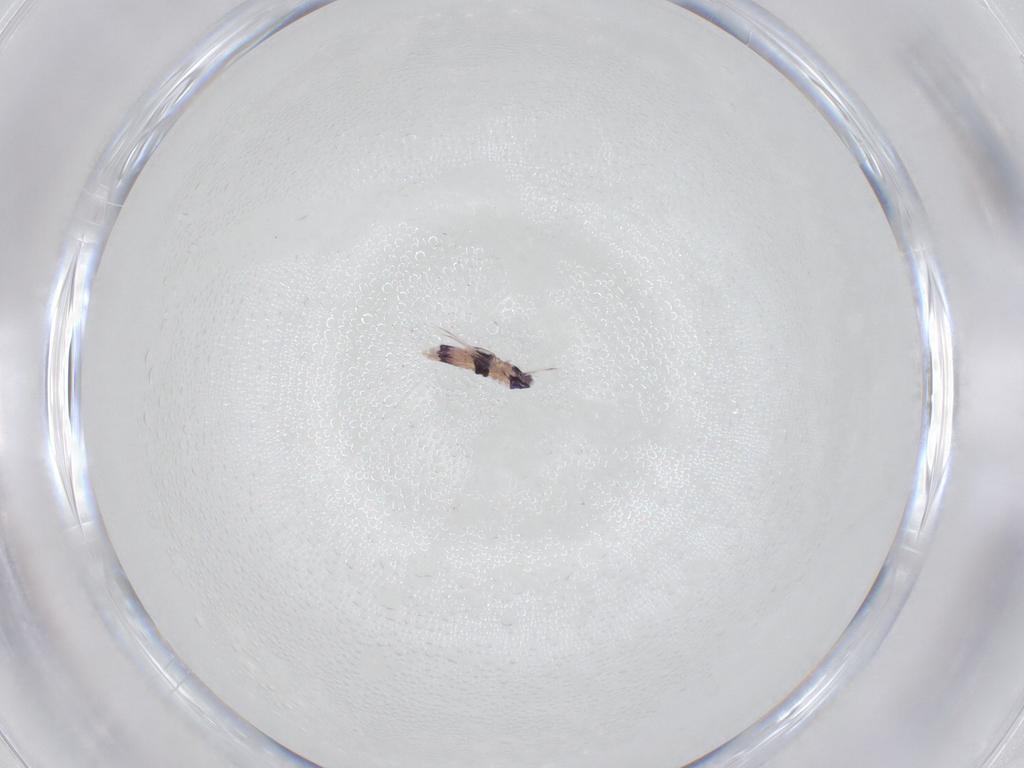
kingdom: Animalia
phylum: Arthropoda
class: Collembola
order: Entomobryomorpha
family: Entomobryidae
